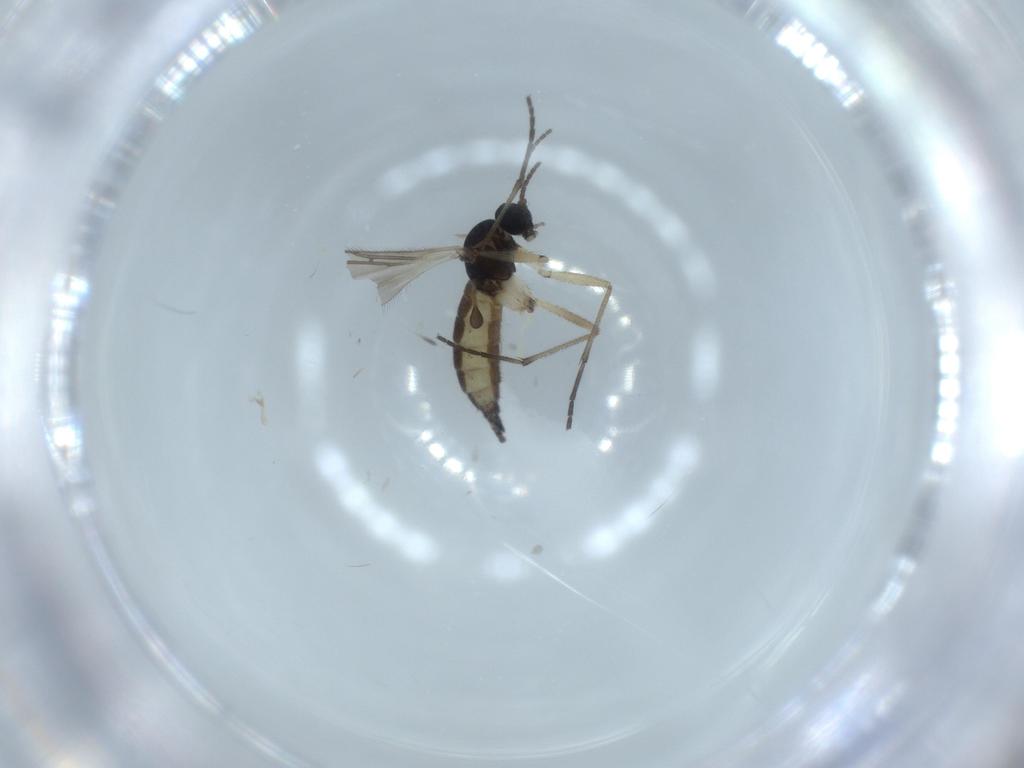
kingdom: Animalia
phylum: Arthropoda
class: Insecta
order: Diptera
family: Sciaridae
